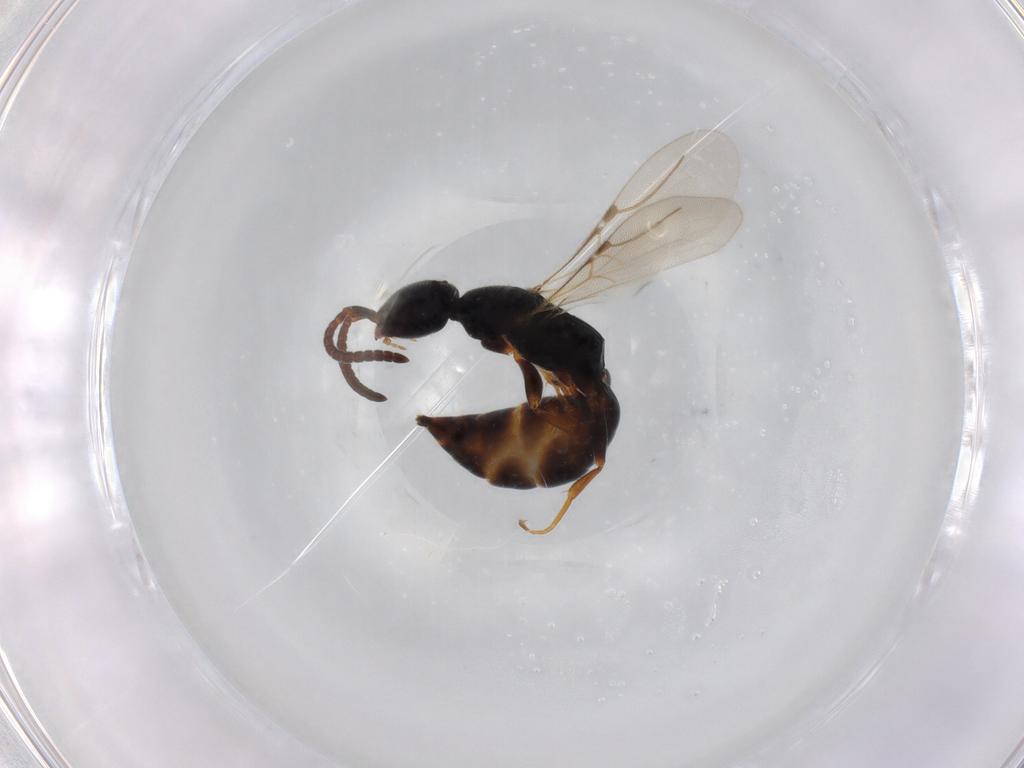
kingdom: Animalia
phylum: Arthropoda
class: Insecta
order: Hymenoptera
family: Bethylidae
